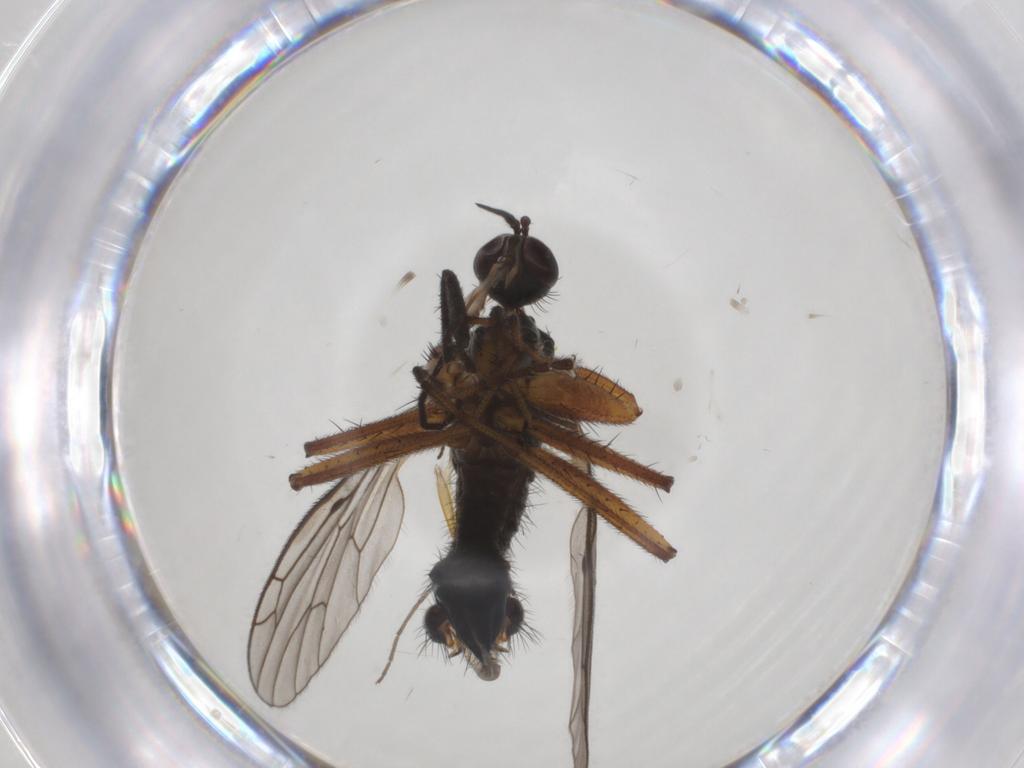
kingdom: Animalia
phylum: Arthropoda
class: Insecta
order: Diptera
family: Empididae
